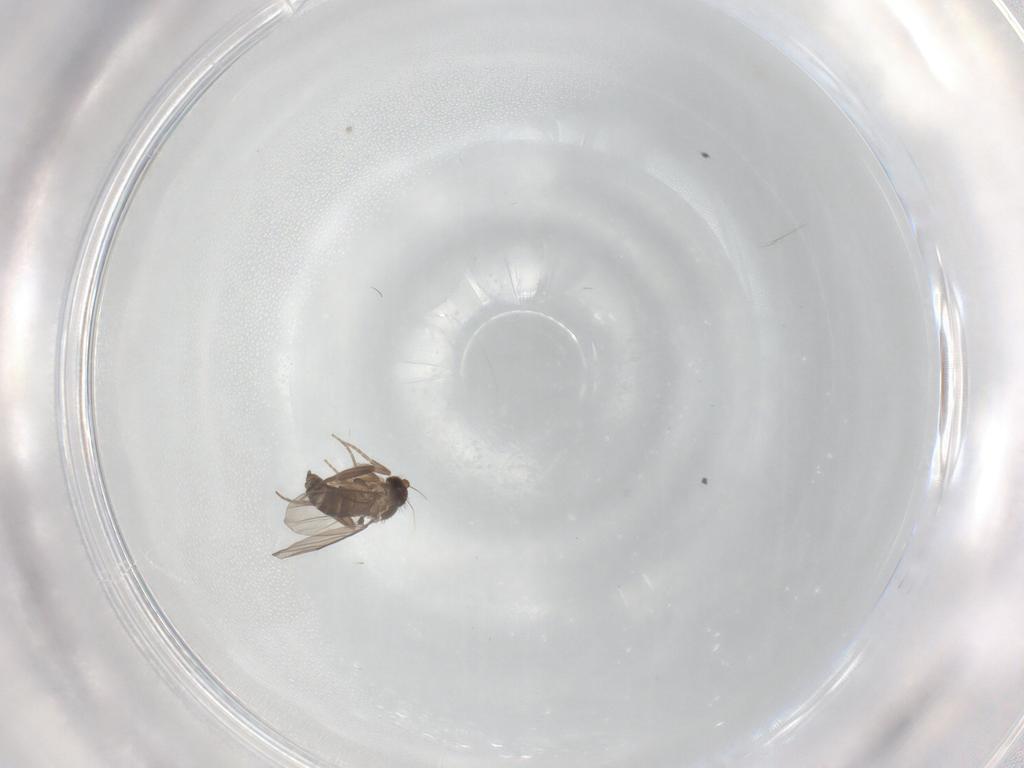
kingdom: Animalia
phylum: Arthropoda
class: Insecta
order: Diptera
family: Phoridae
